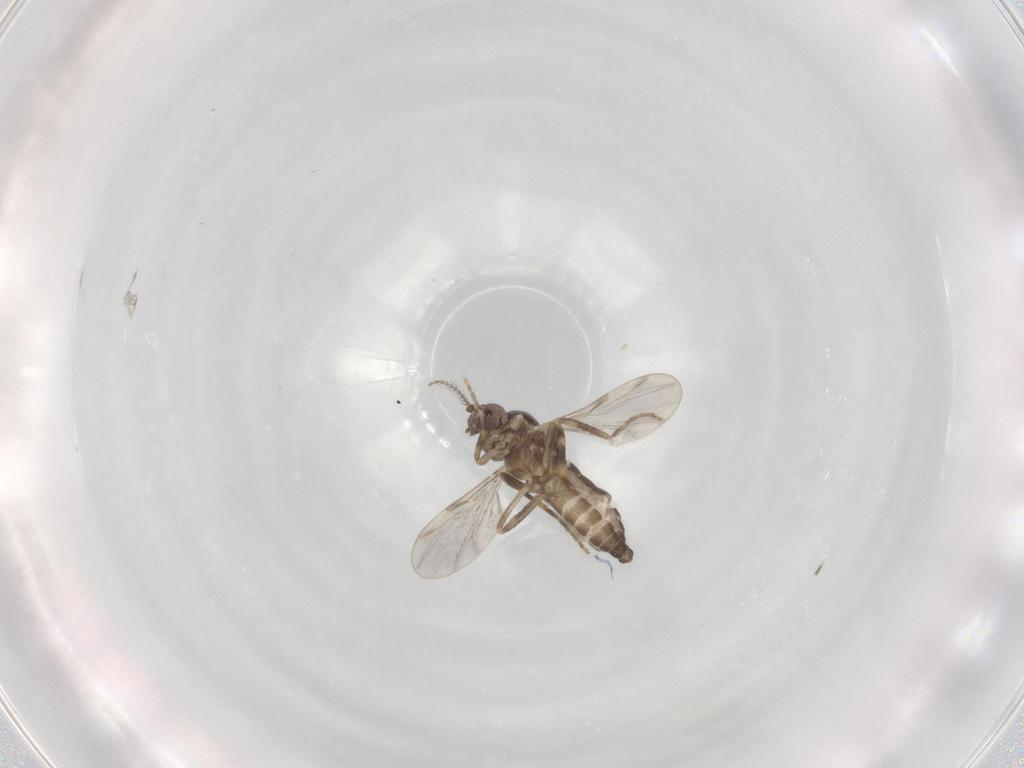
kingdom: Animalia
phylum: Arthropoda
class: Insecta
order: Diptera
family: Ceratopogonidae
